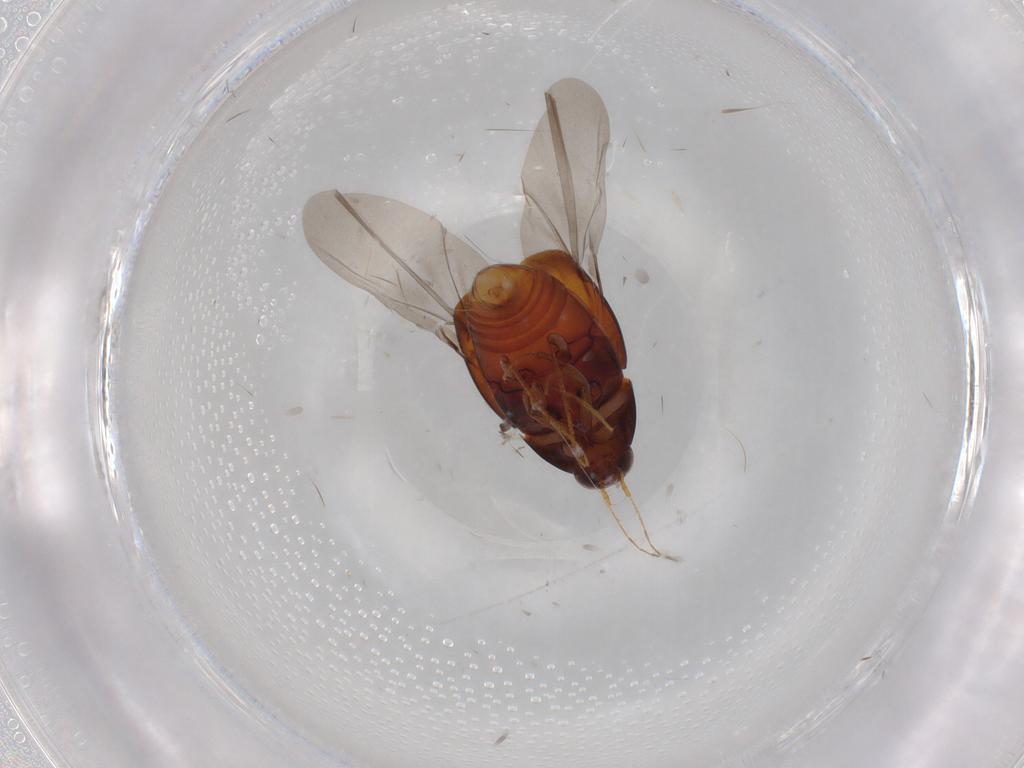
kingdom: Animalia
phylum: Arthropoda
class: Insecta
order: Coleoptera
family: Staphylinidae
